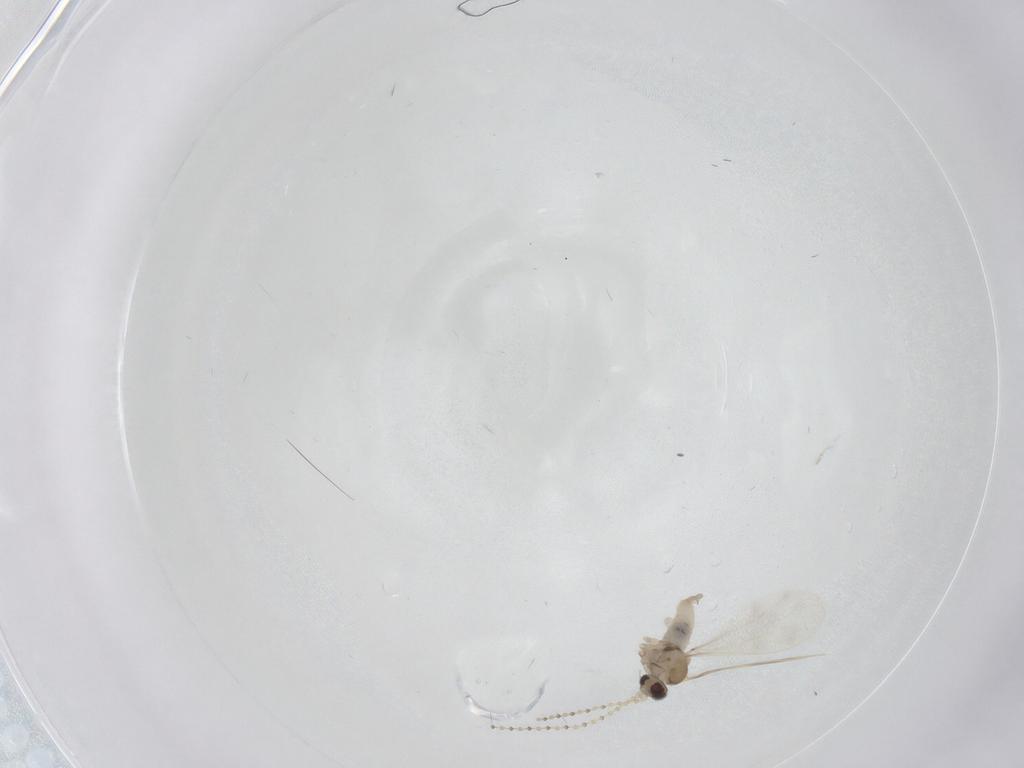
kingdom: Animalia
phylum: Arthropoda
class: Insecta
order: Diptera
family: Cecidomyiidae
